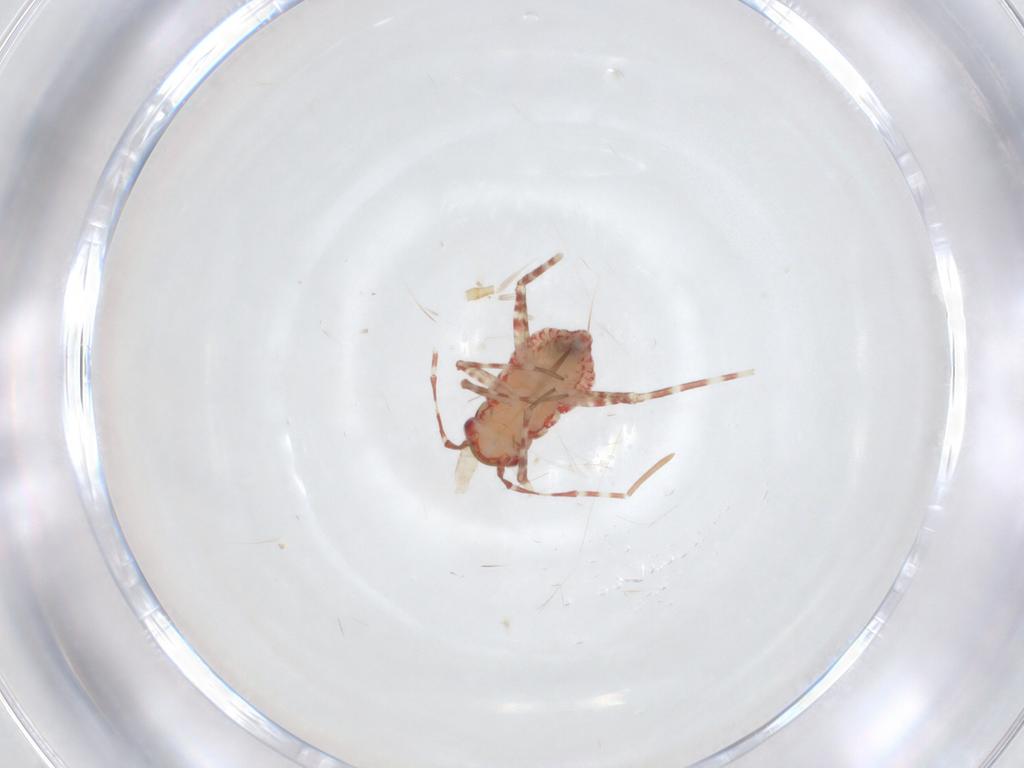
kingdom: Animalia
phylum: Arthropoda
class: Insecta
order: Hemiptera
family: Miridae
